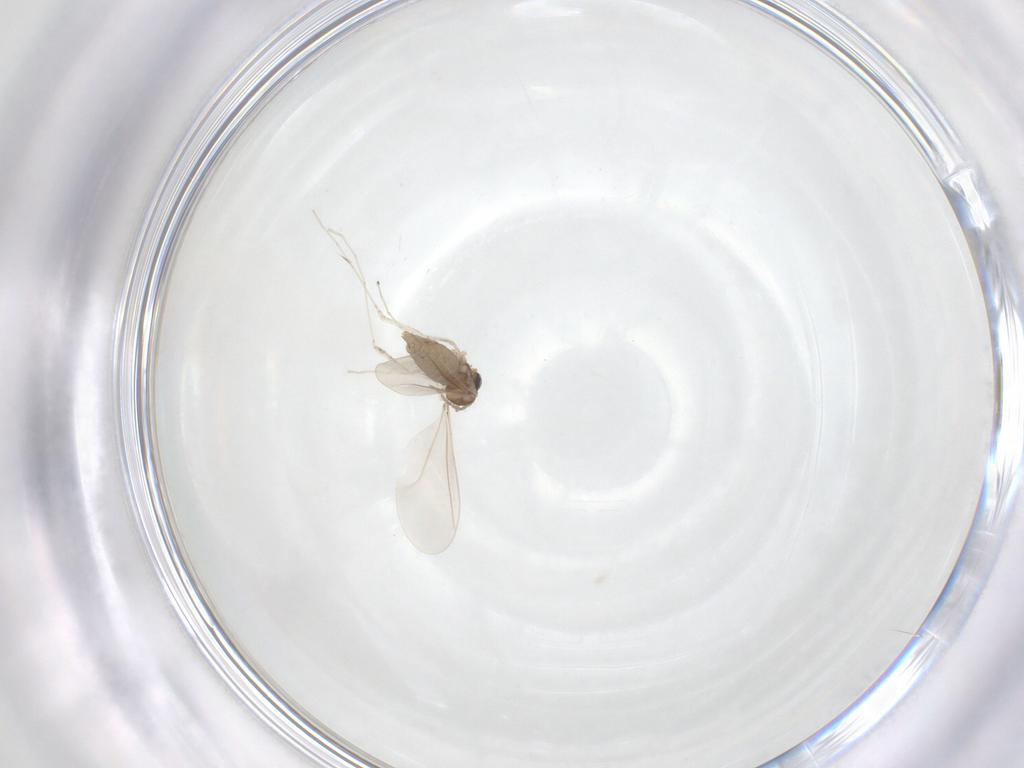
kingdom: Animalia
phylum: Arthropoda
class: Insecta
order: Diptera
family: Cecidomyiidae
